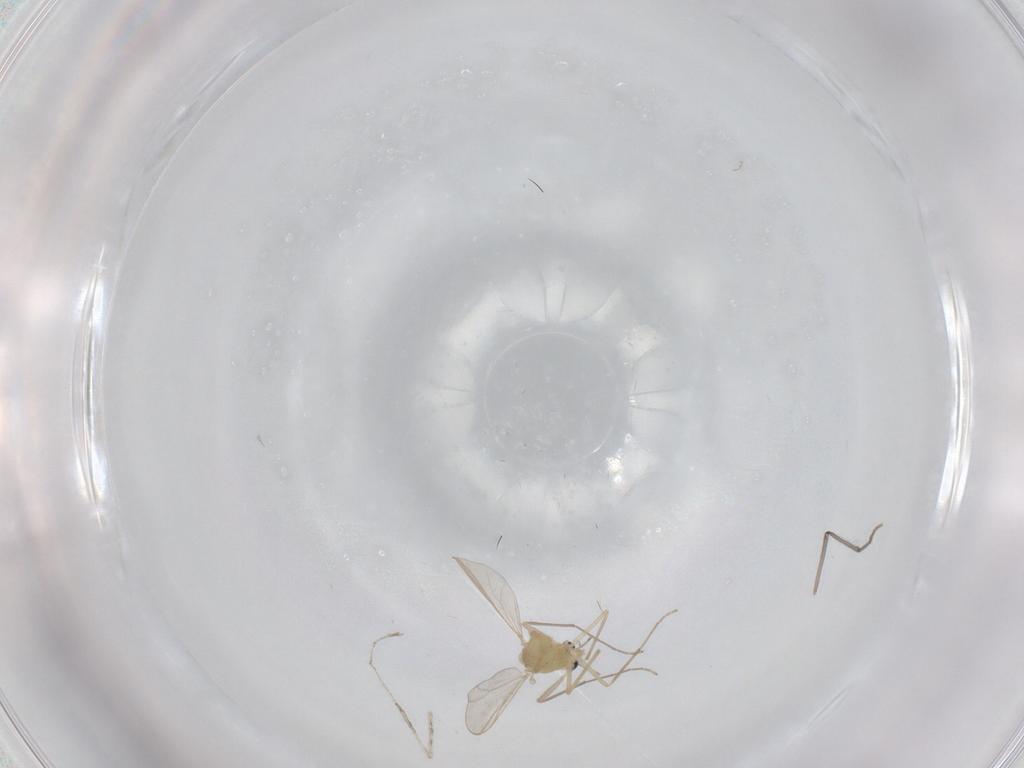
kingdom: Animalia
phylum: Arthropoda
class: Insecta
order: Diptera
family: Chironomidae
